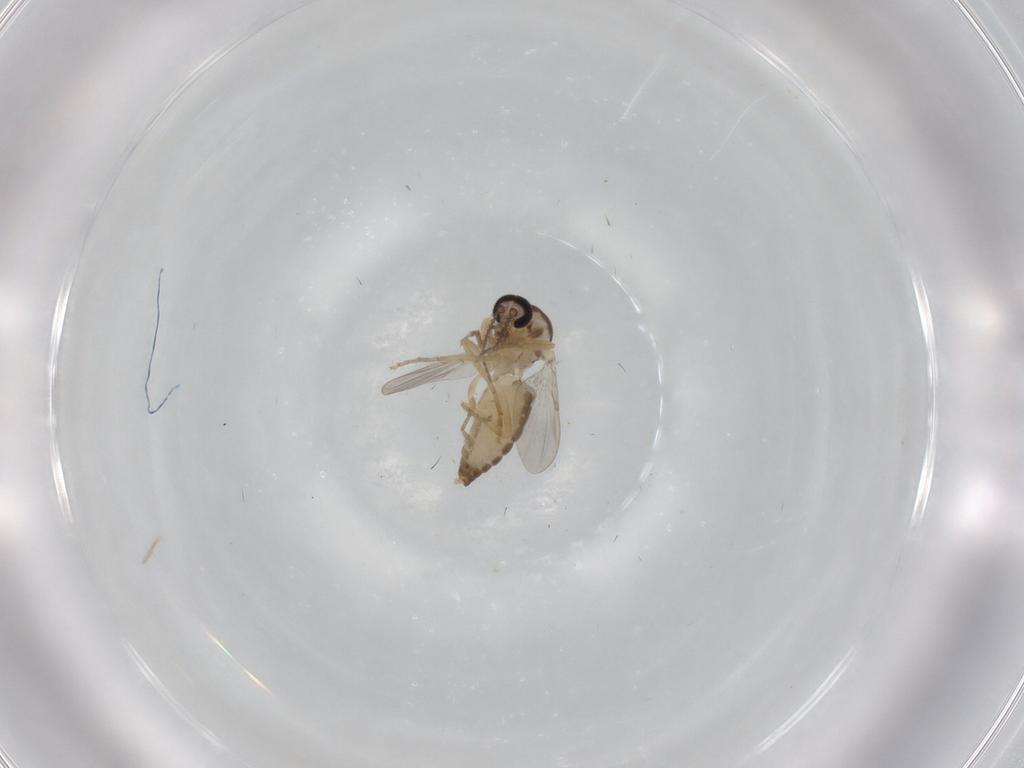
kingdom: Animalia
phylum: Arthropoda
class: Insecta
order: Diptera
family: Ceratopogonidae
